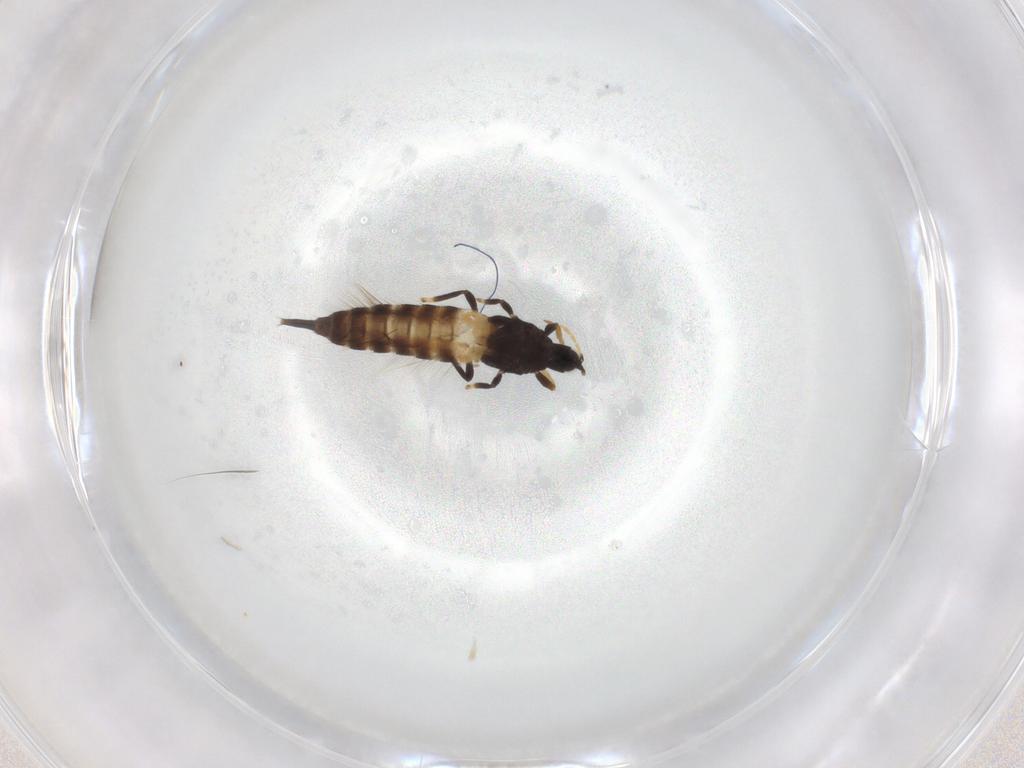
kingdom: Animalia
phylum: Arthropoda
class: Insecta
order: Thysanoptera
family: Phlaeothripidae
